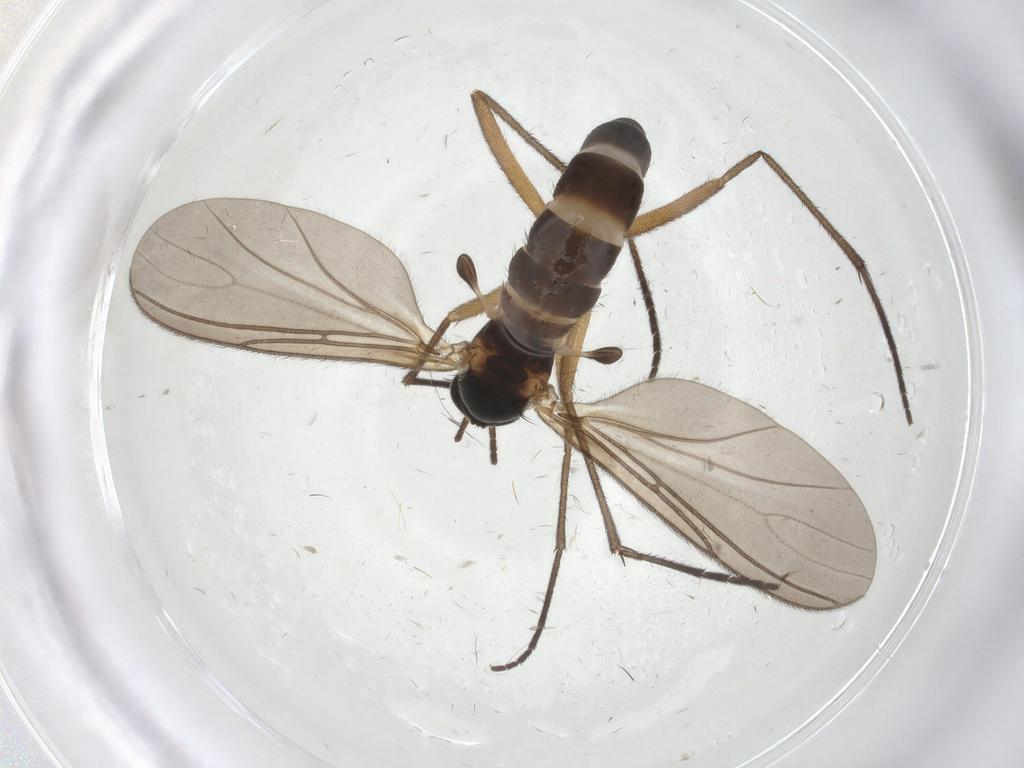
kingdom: Animalia
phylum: Arthropoda
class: Insecta
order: Diptera
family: Sciaridae
